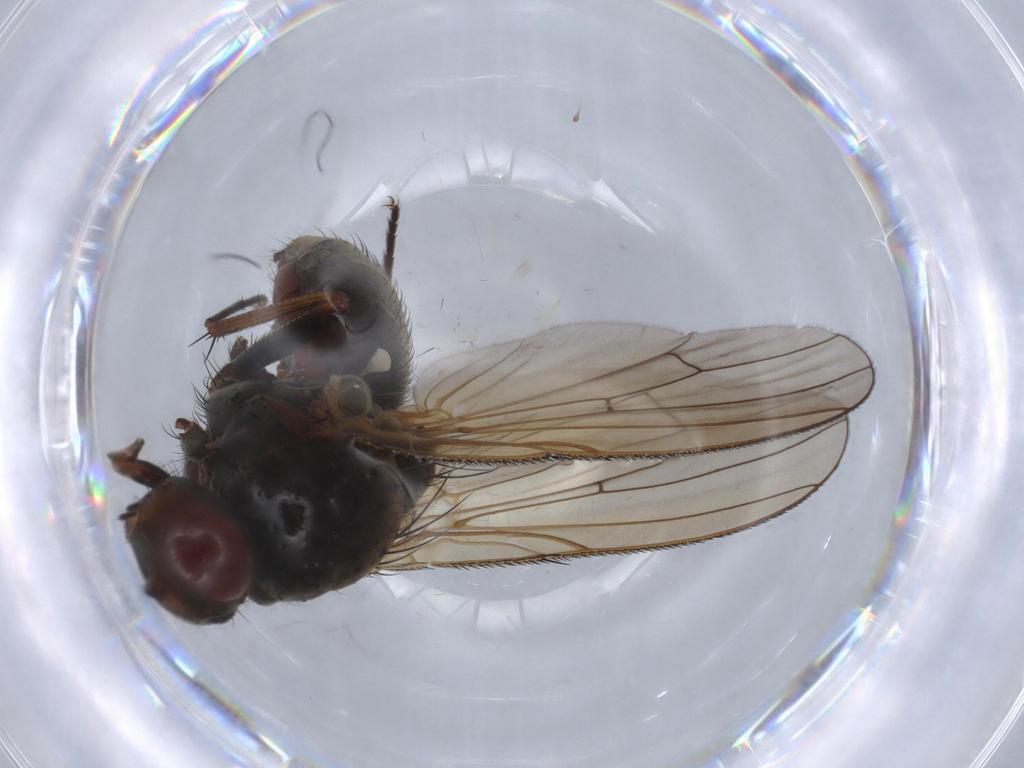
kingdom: Animalia
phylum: Arthropoda
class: Insecta
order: Diptera
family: Anthomyiidae
